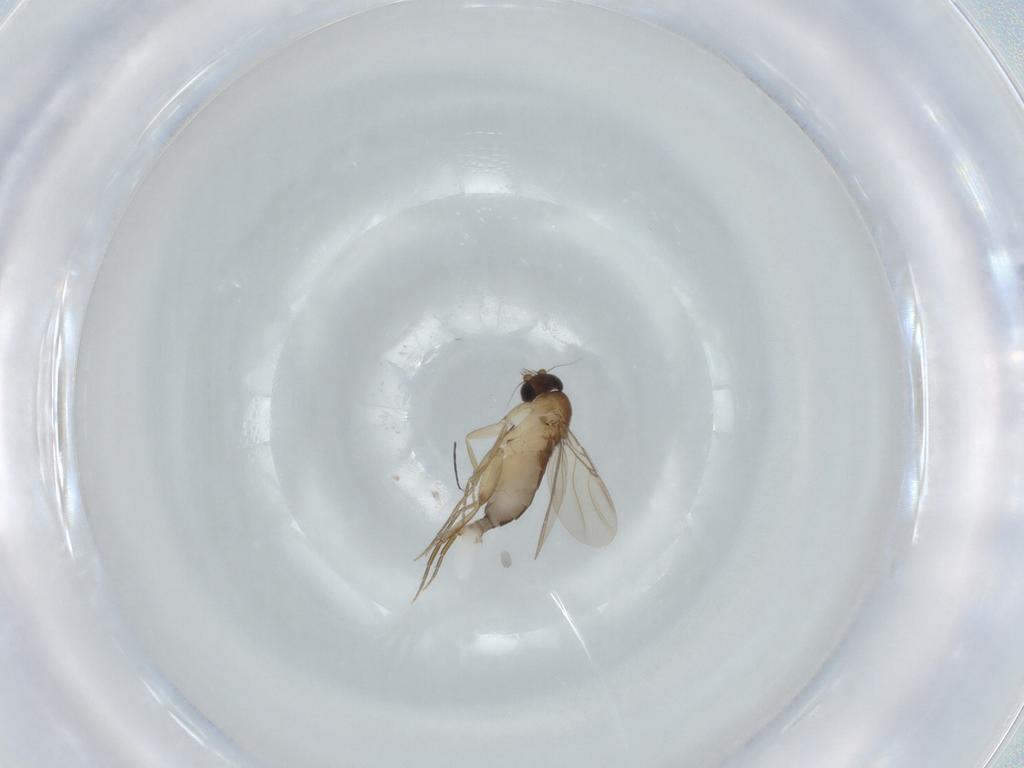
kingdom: Animalia
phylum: Arthropoda
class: Insecta
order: Diptera
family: Phoridae
